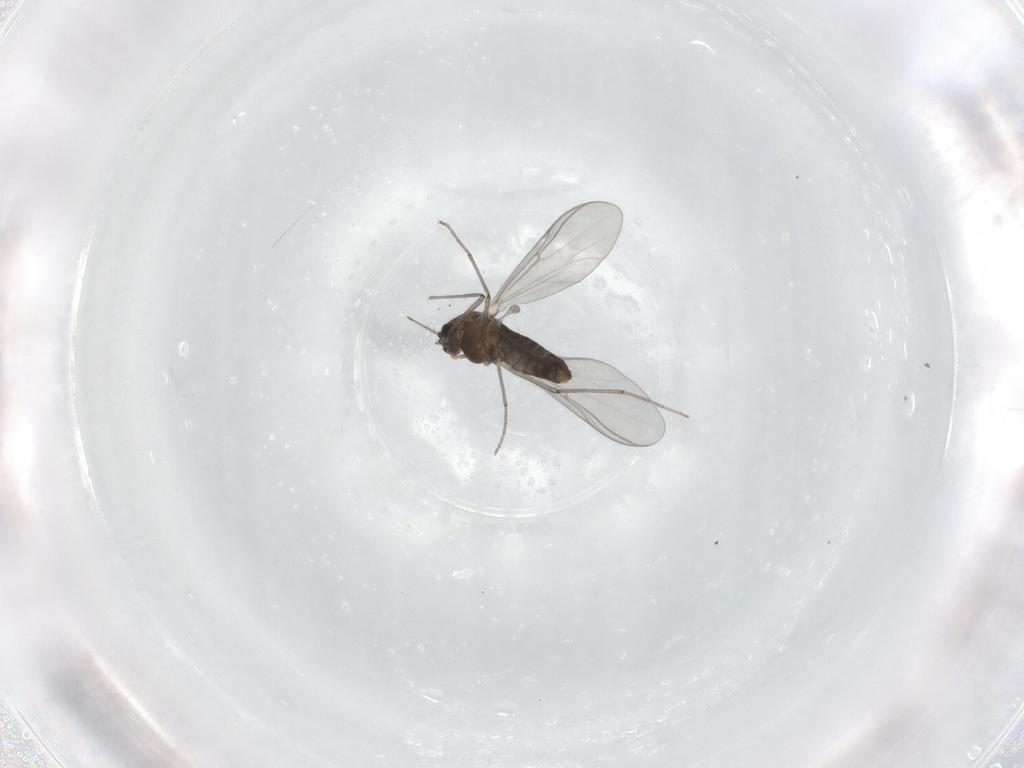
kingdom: Animalia
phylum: Arthropoda
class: Insecta
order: Diptera
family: Chironomidae
